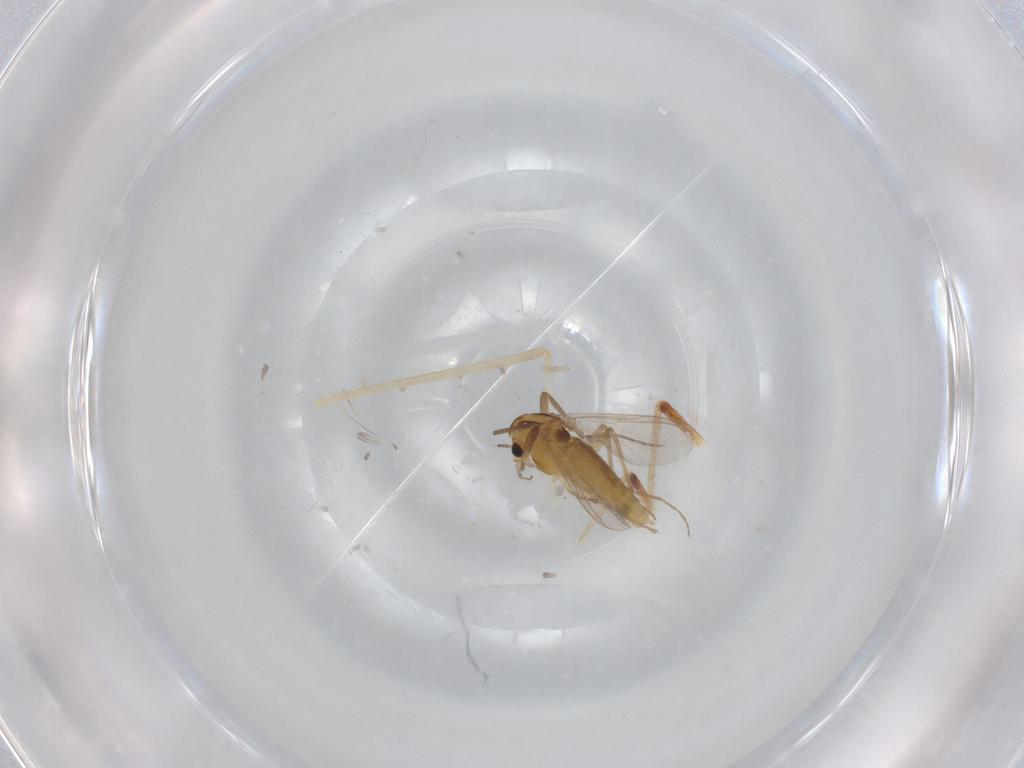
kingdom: Animalia
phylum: Arthropoda
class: Insecta
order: Diptera
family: Chironomidae
